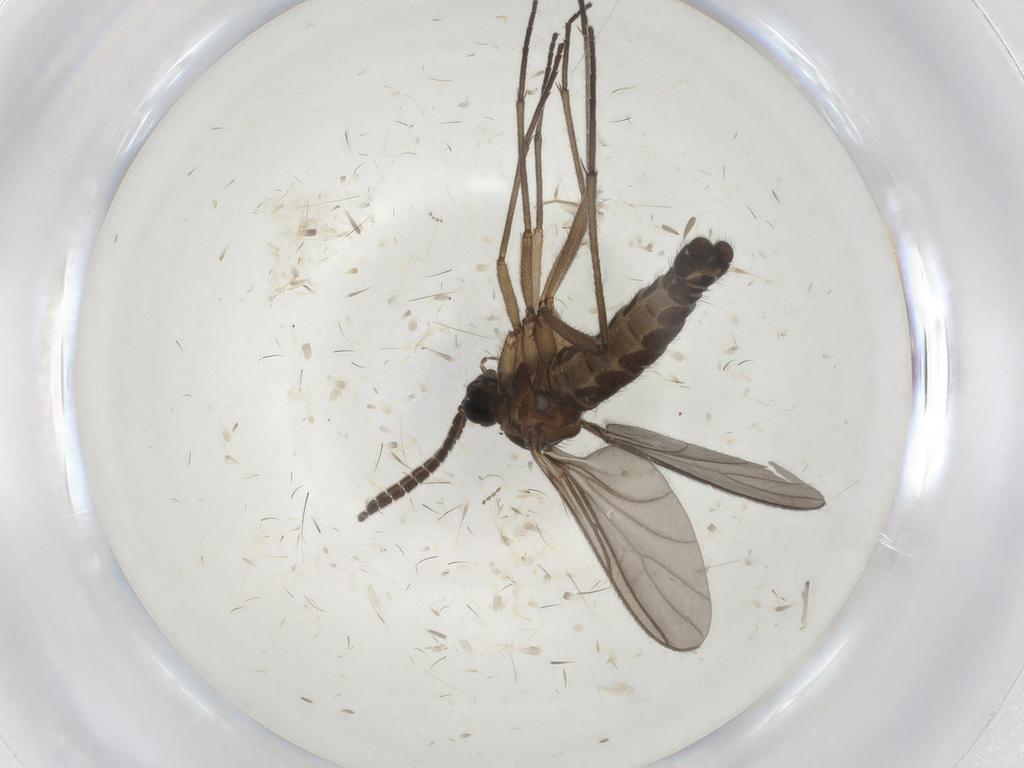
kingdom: Animalia
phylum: Arthropoda
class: Insecta
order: Diptera
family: Sciaridae
